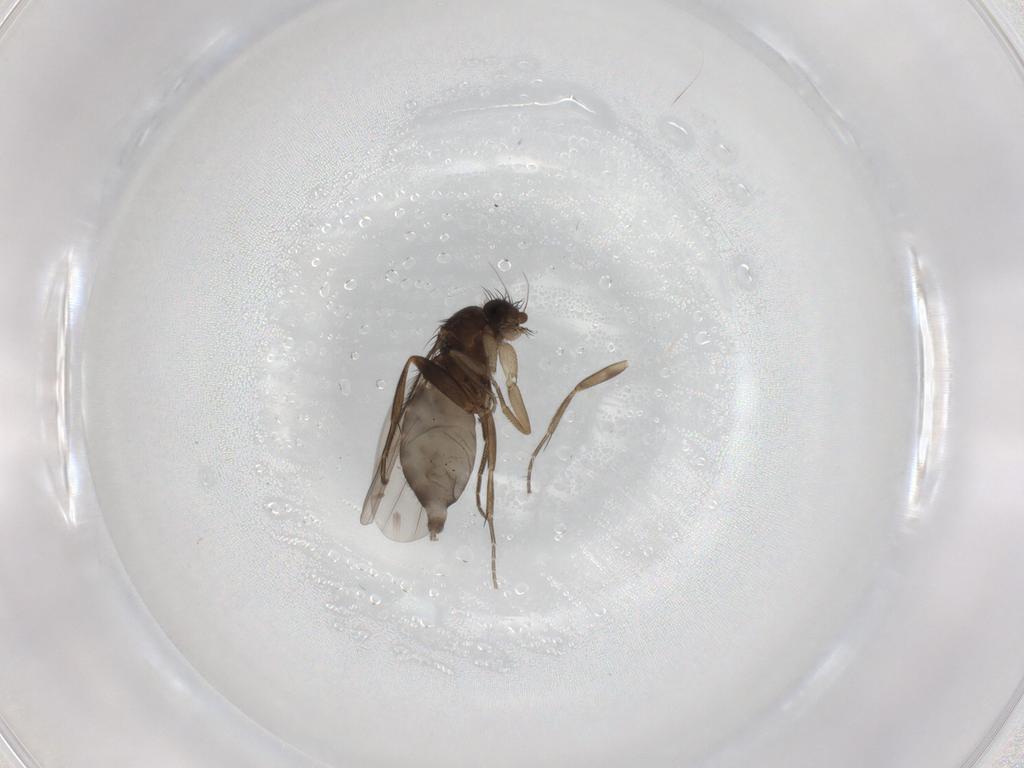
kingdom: Animalia
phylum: Arthropoda
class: Insecta
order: Diptera
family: Phoridae
